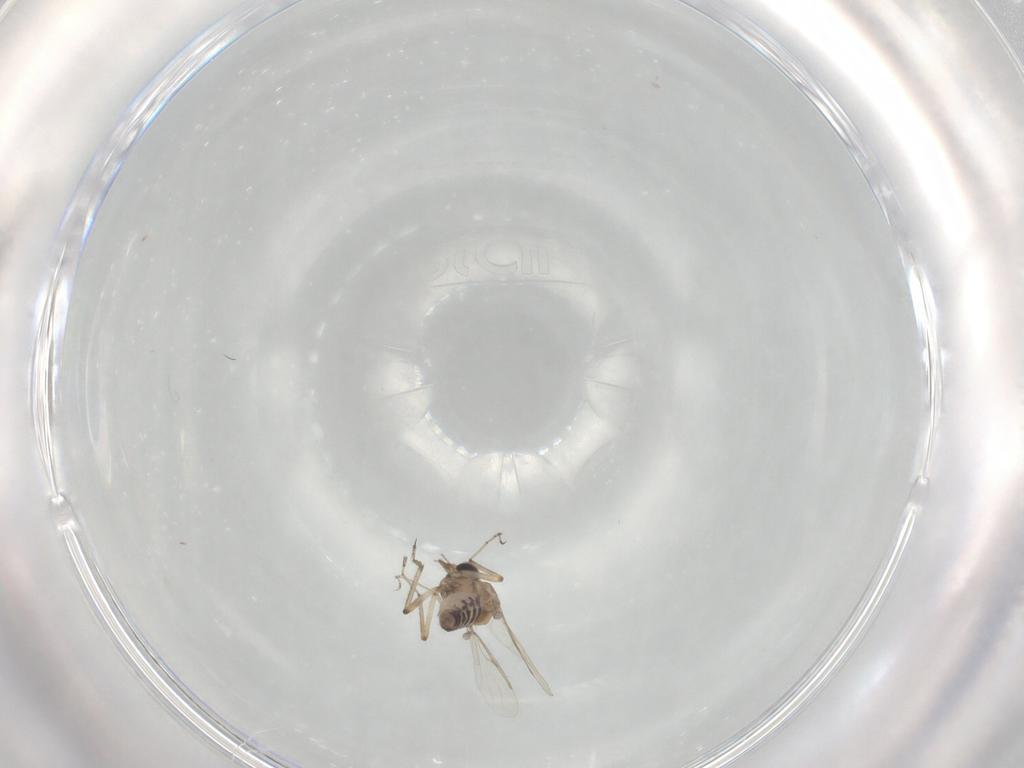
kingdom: Animalia
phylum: Arthropoda
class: Insecta
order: Diptera
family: Ceratopogonidae
